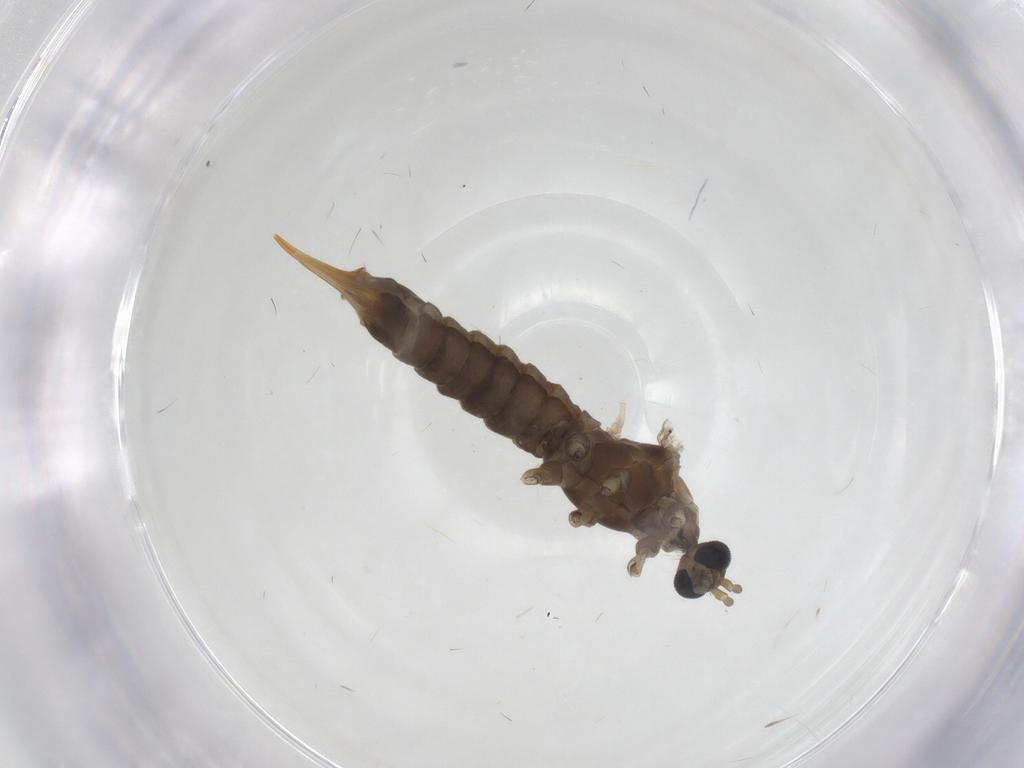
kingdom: Animalia
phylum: Arthropoda
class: Insecta
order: Diptera
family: Limoniidae
